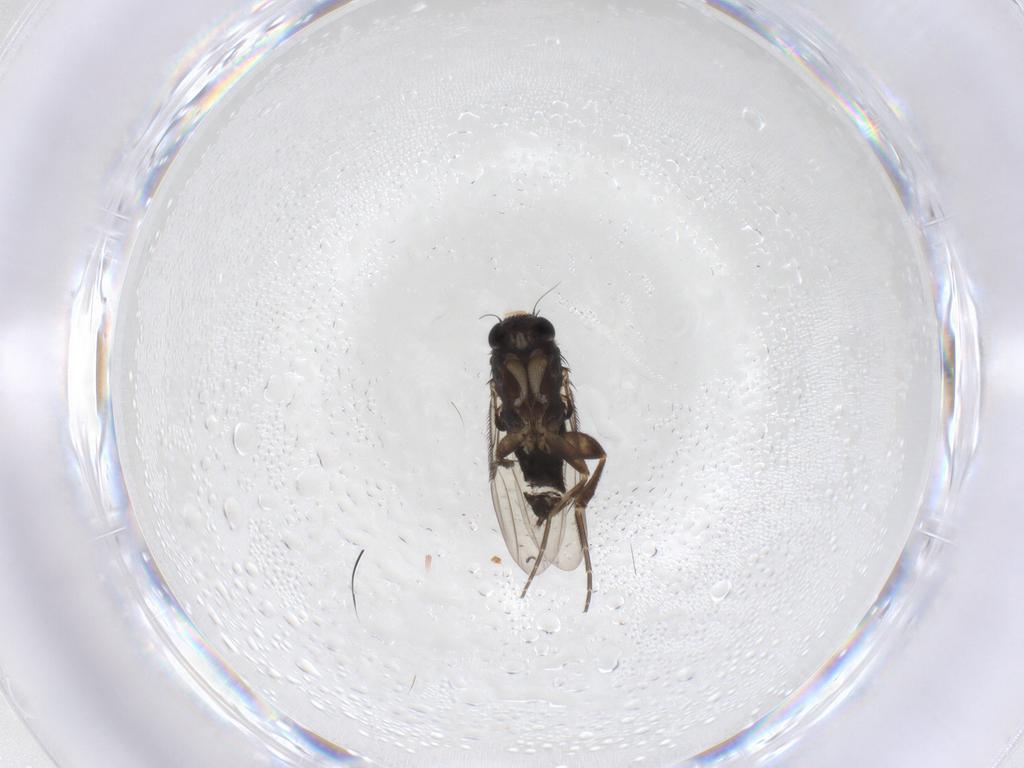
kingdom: Animalia
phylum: Arthropoda
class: Insecta
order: Diptera
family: Phoridae
